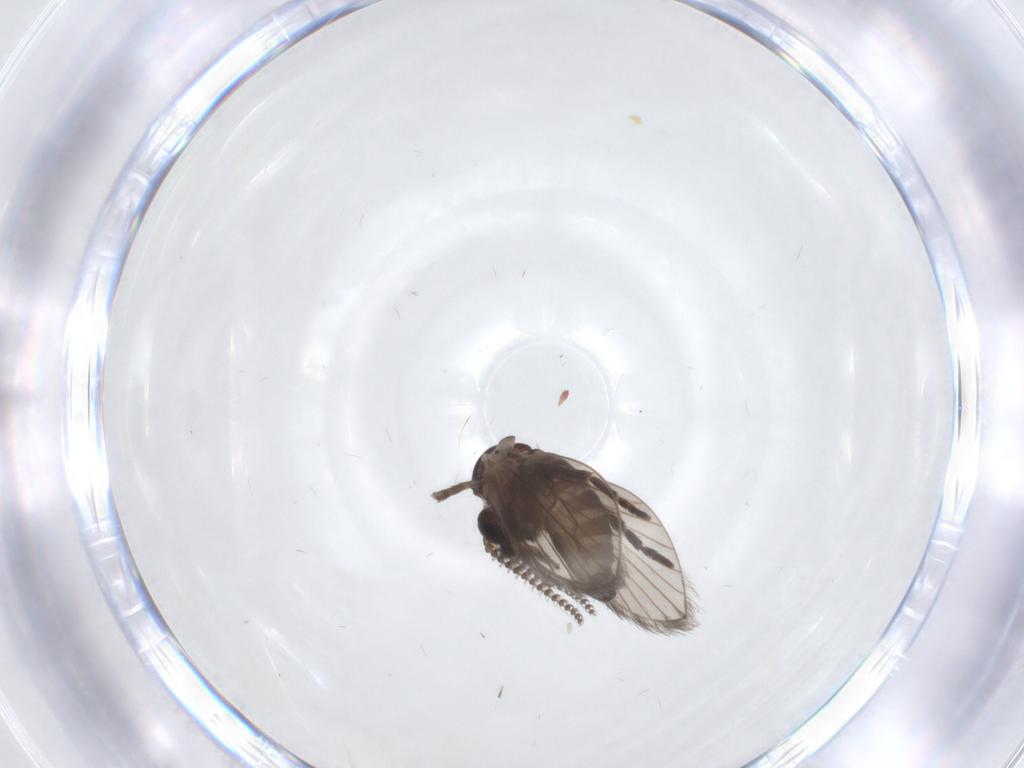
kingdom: Animalia
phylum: Arthropoda
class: Insecta
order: Diptera
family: Psychodidae
